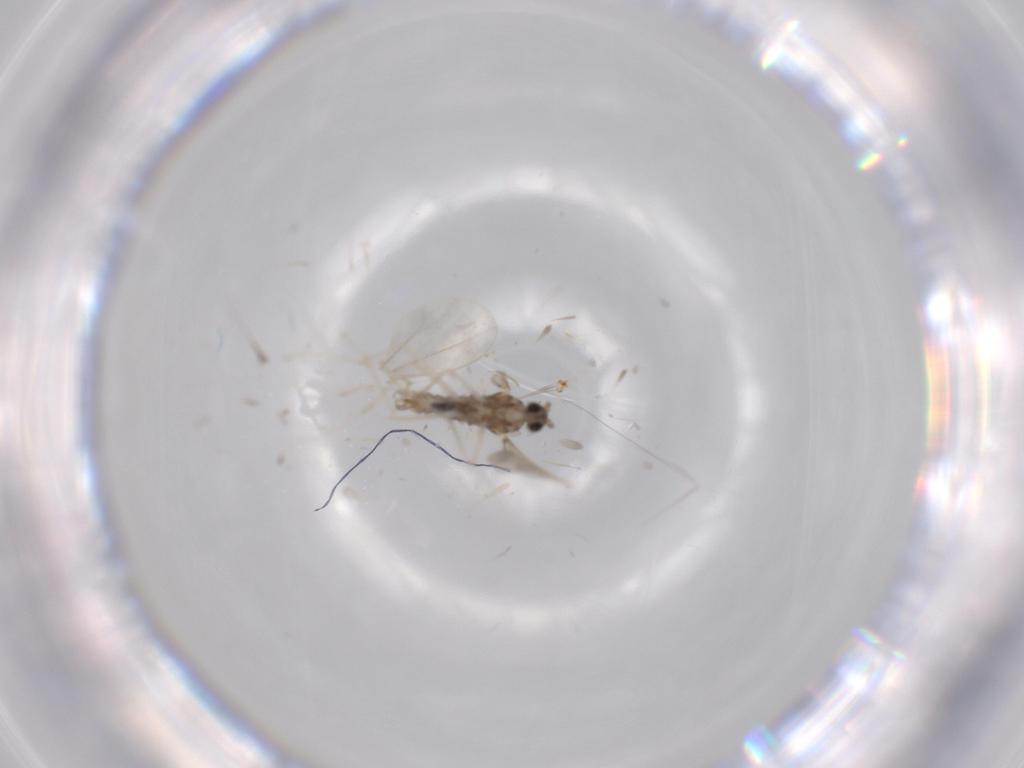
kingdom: Animalia
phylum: Arthropoda
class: Insecta
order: Diptera
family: Cecidomyiidae
